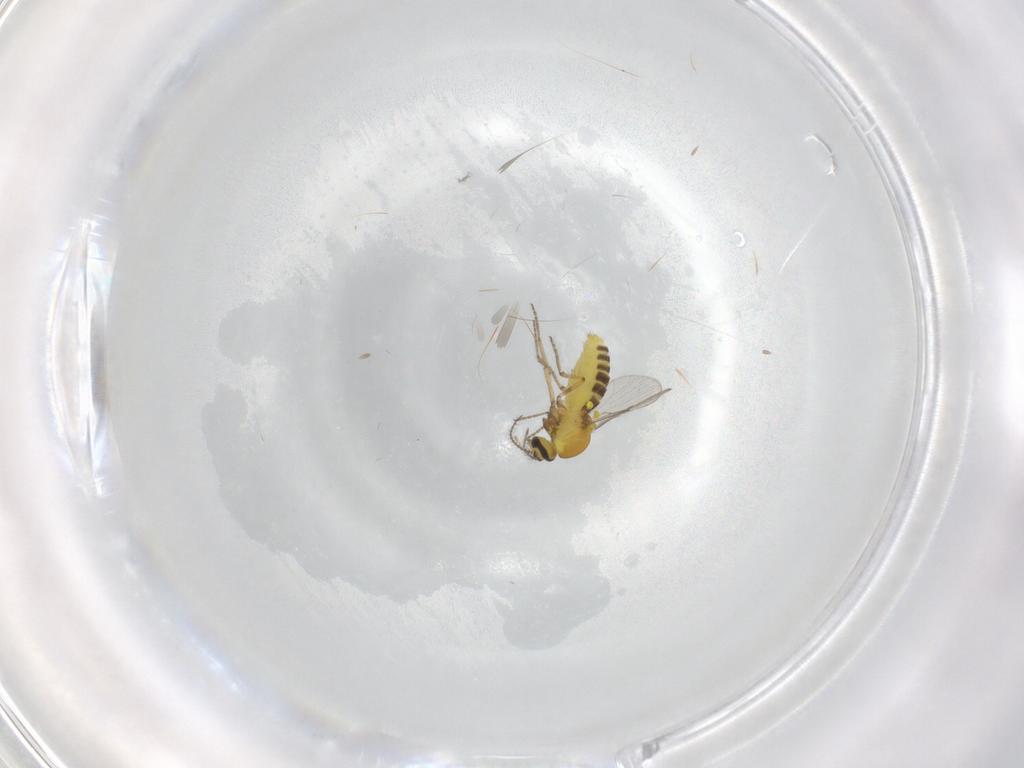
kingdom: Animalia
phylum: Arthropoda
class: Insecta
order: Diptera
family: Ceratopogonidae
